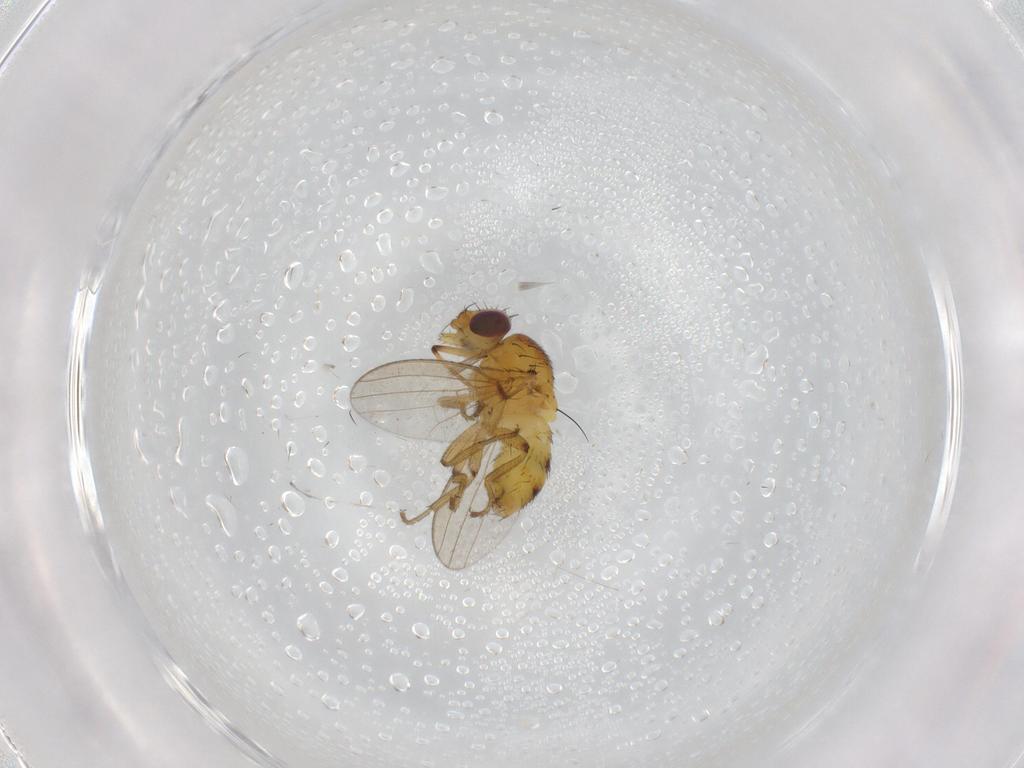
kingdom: Animalia
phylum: Arthropoda
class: Insecta
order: Diptera
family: Milichiidae
